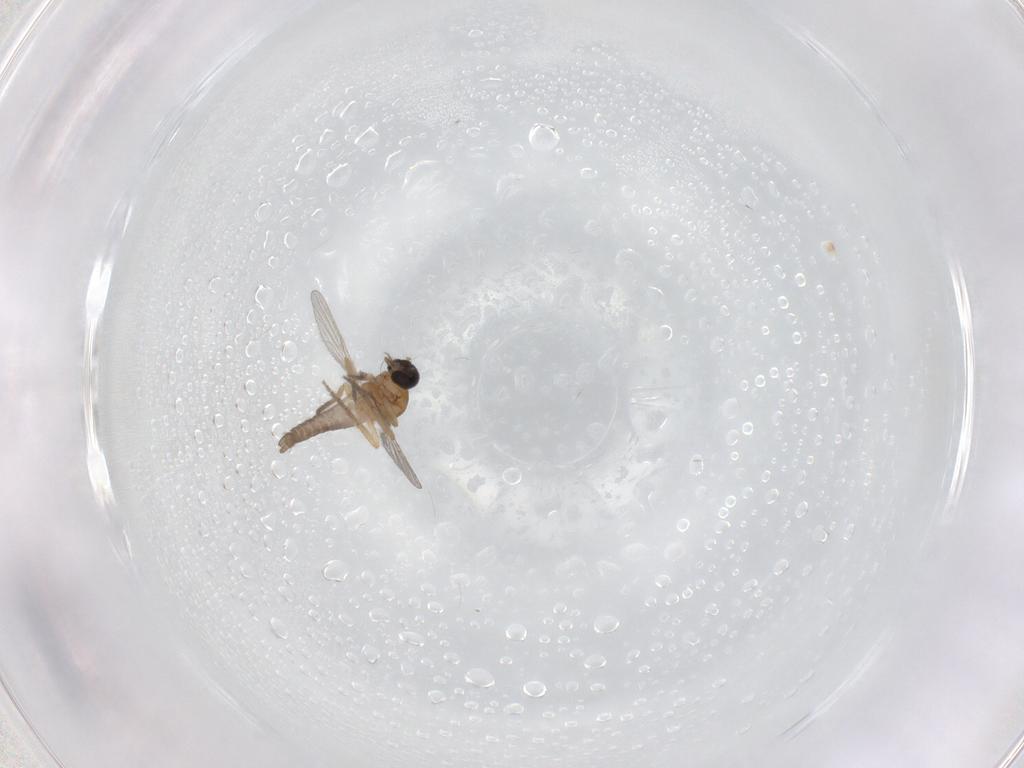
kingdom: Animalia
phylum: Arthropoda
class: Insecta
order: Diptera
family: Ceratopogonidae
